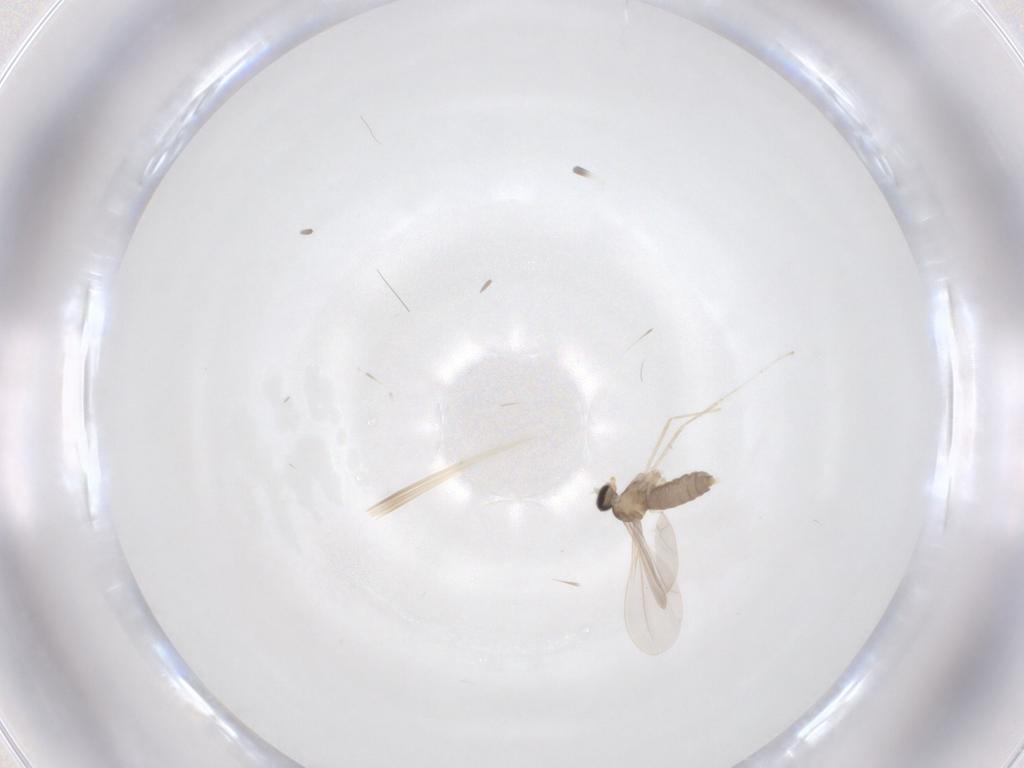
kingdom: Animalia
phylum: Arthropoda
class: Insecta
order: Diptera
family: Cecidomyiidae
